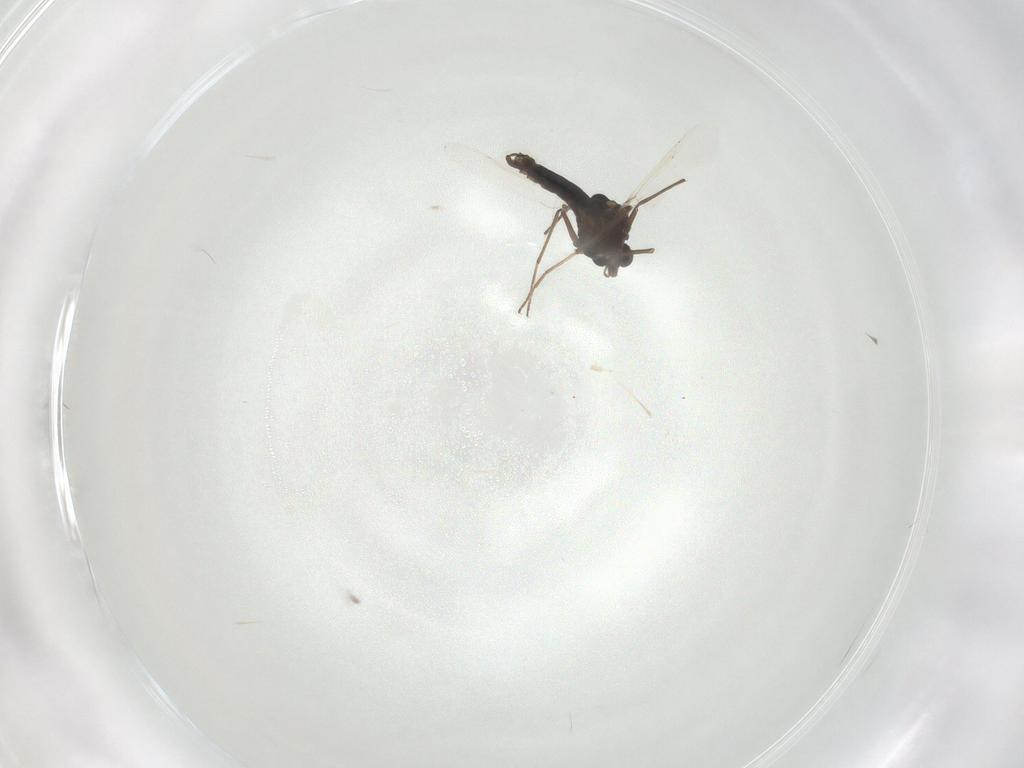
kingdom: Animalia
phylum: Arthropoda
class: Insecta
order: Diptera
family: Chironomidae
